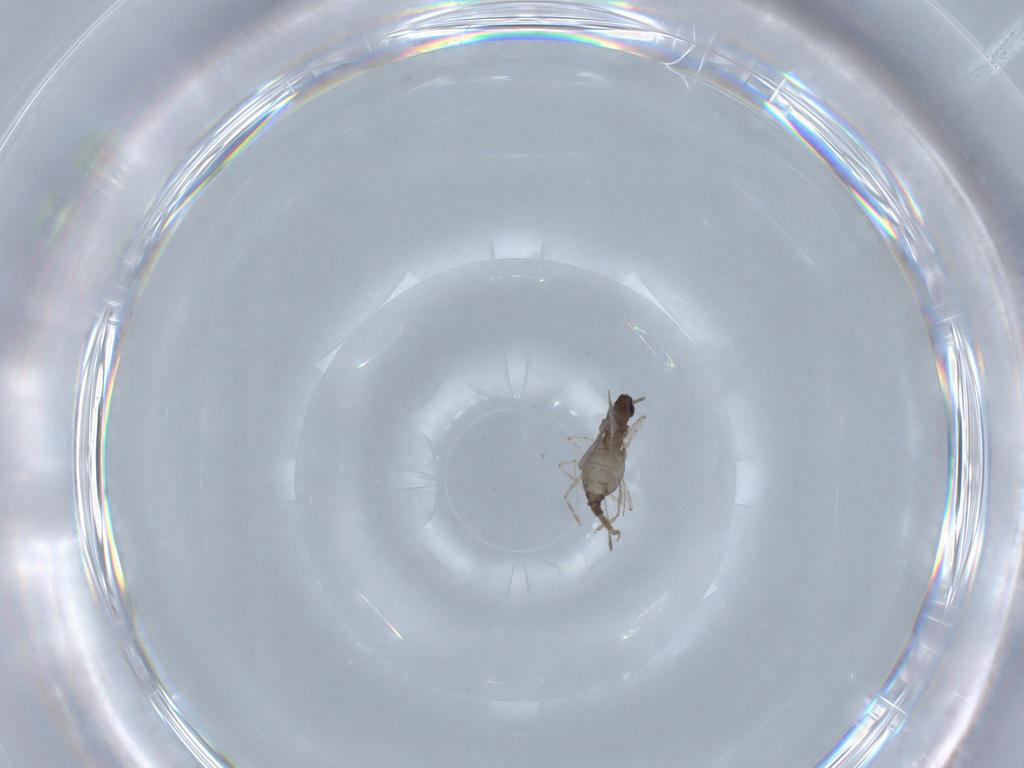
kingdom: Animalia
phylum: Arthropoda
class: Insecta
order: Diptera
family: Cecidomyiidae
